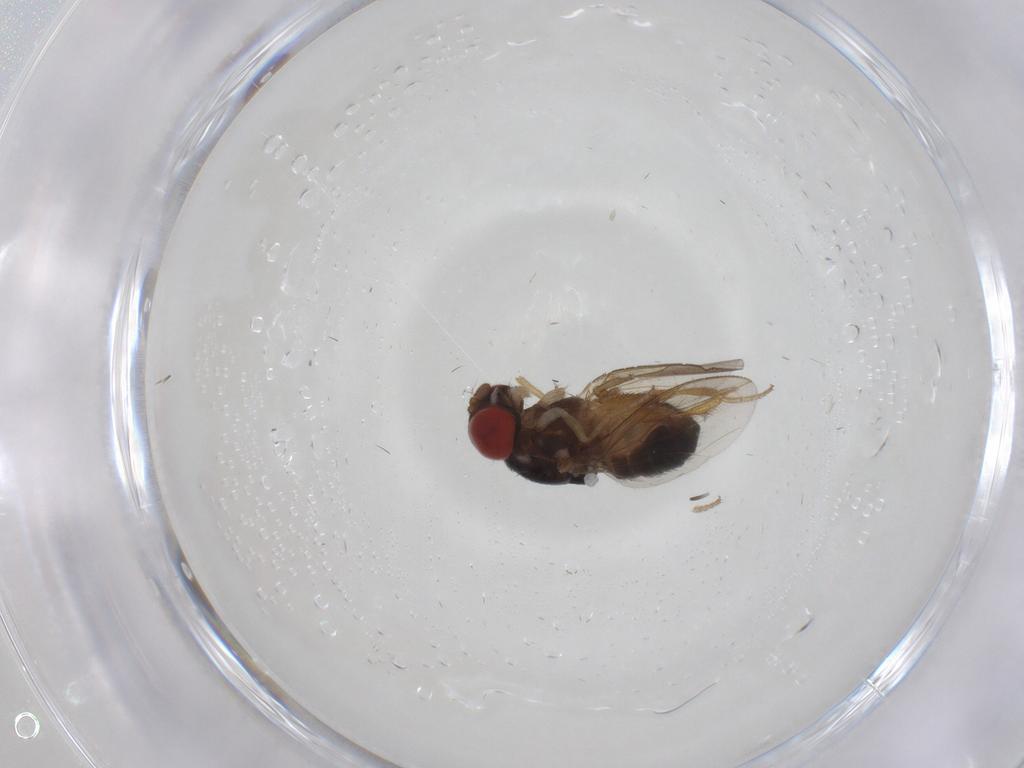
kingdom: Animalia
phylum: Arthropoda
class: Insecta
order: Diptera
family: Drosophilidae
